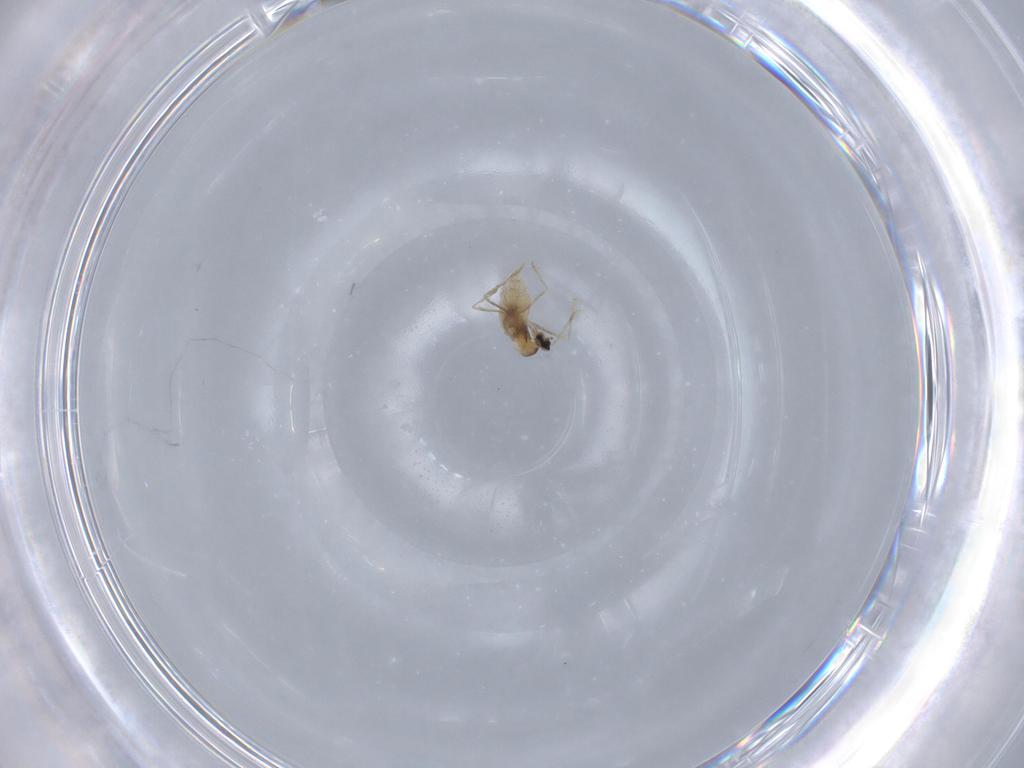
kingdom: Animalia
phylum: Arthropoda
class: Insecta
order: Diptera
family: Cecidomyiidae
